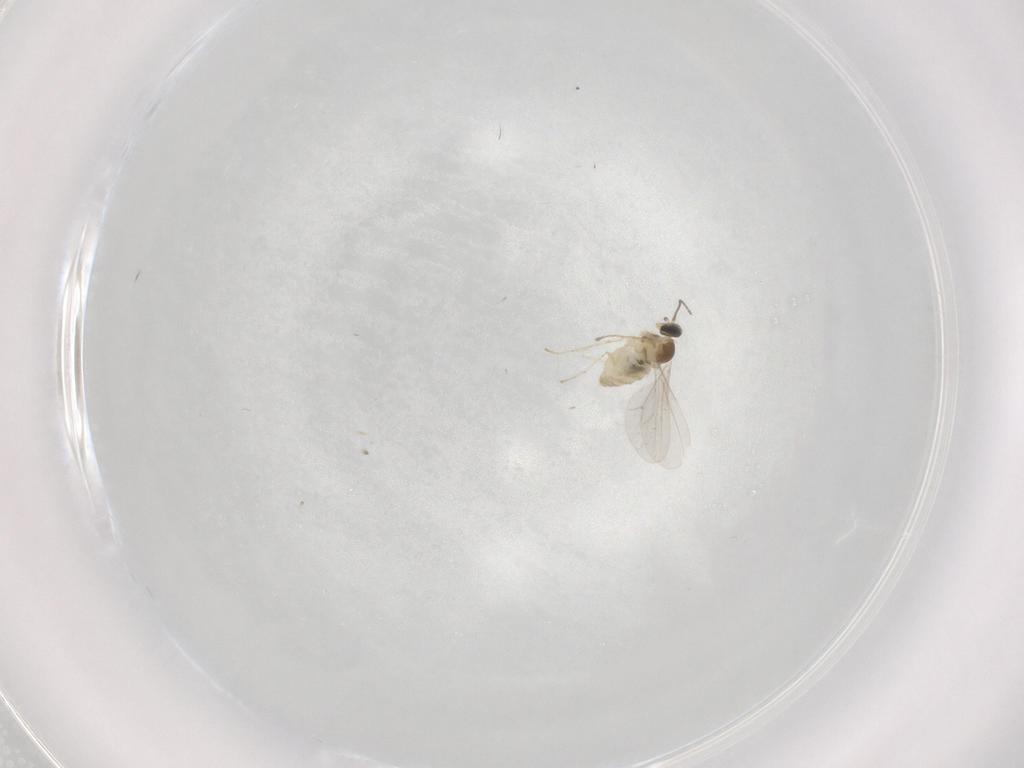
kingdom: Animalia
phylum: Arthropoda
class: Insecta
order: Diptera
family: Cecidomyiidae
